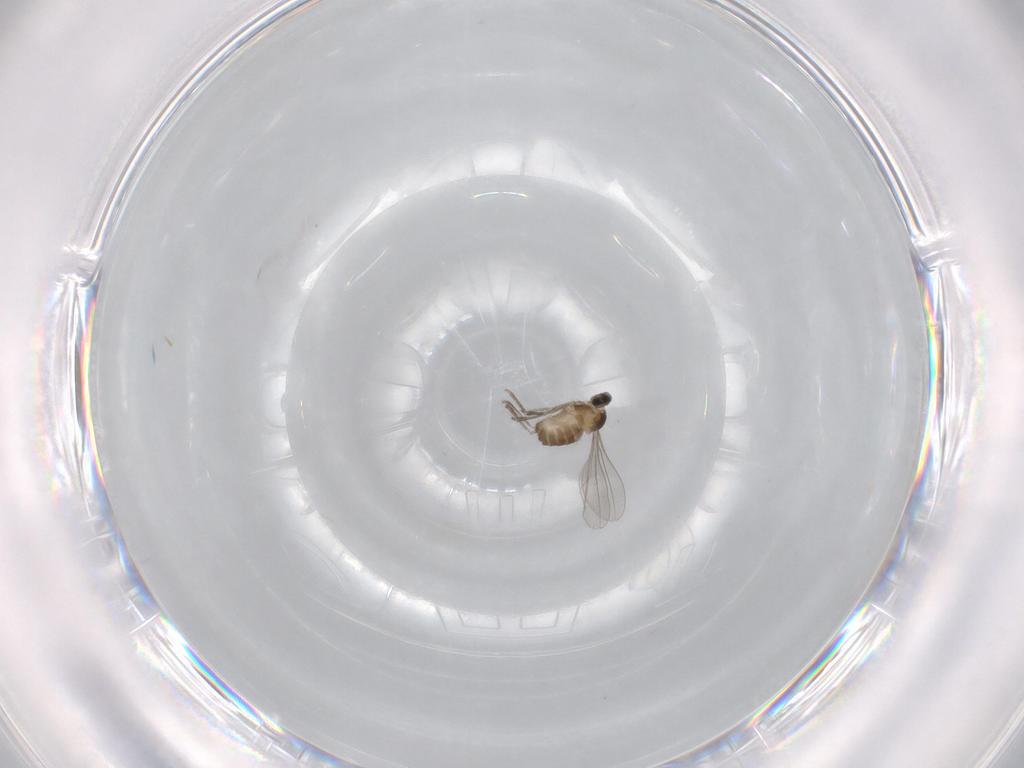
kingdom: Animalia
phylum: Arthropoda
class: Insecta
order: Diptera
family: Cecidomyiidae
